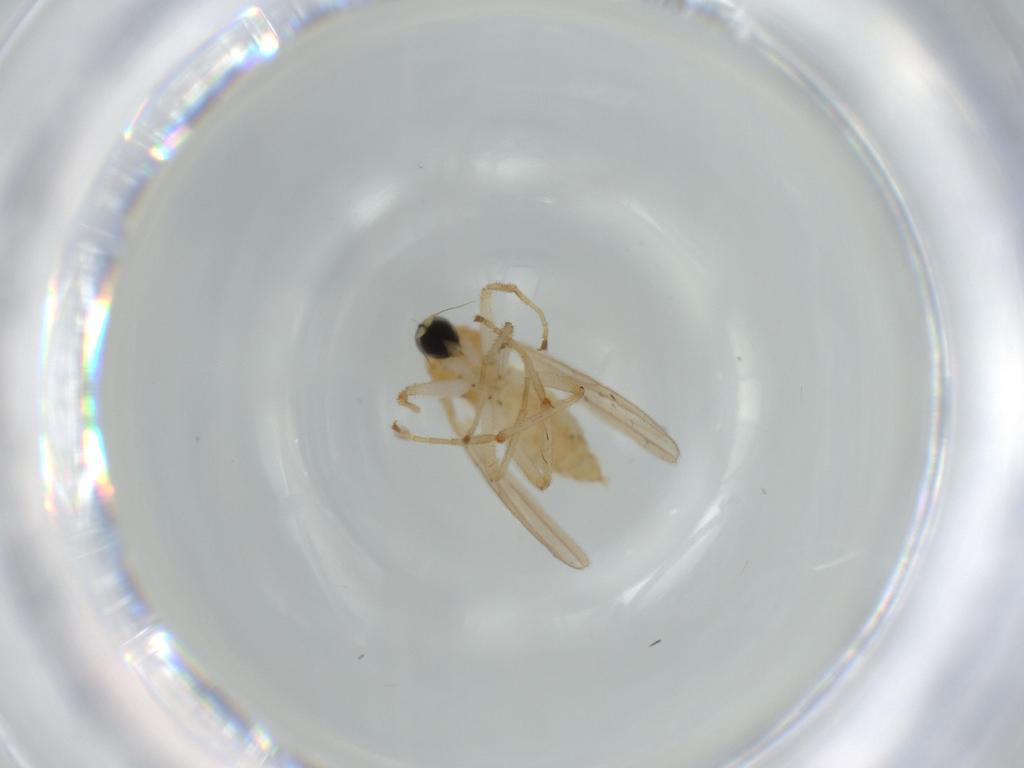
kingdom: Animalia
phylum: Arthropoda
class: Insecta
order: Diptera
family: Hybotidae
